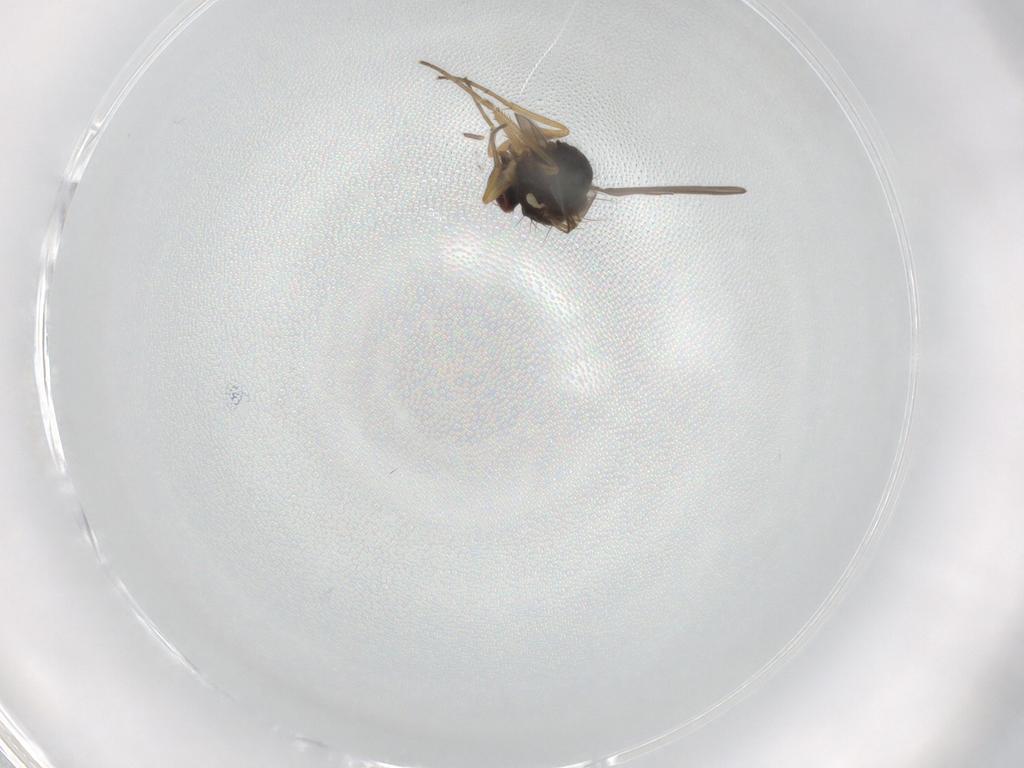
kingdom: Animalia
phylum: Arthropoda
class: Insecta
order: Diptera
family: Dolichopodidae
